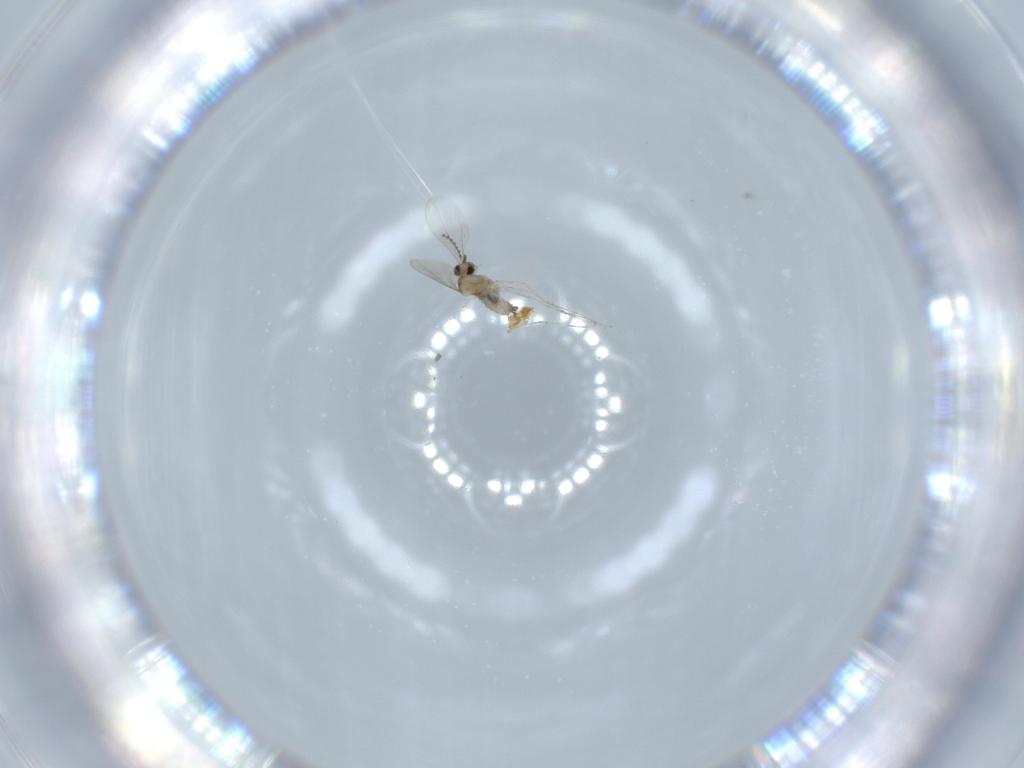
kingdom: Animalia
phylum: Arthropoda
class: Insecta
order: Diptera
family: Cecidomyiidae
